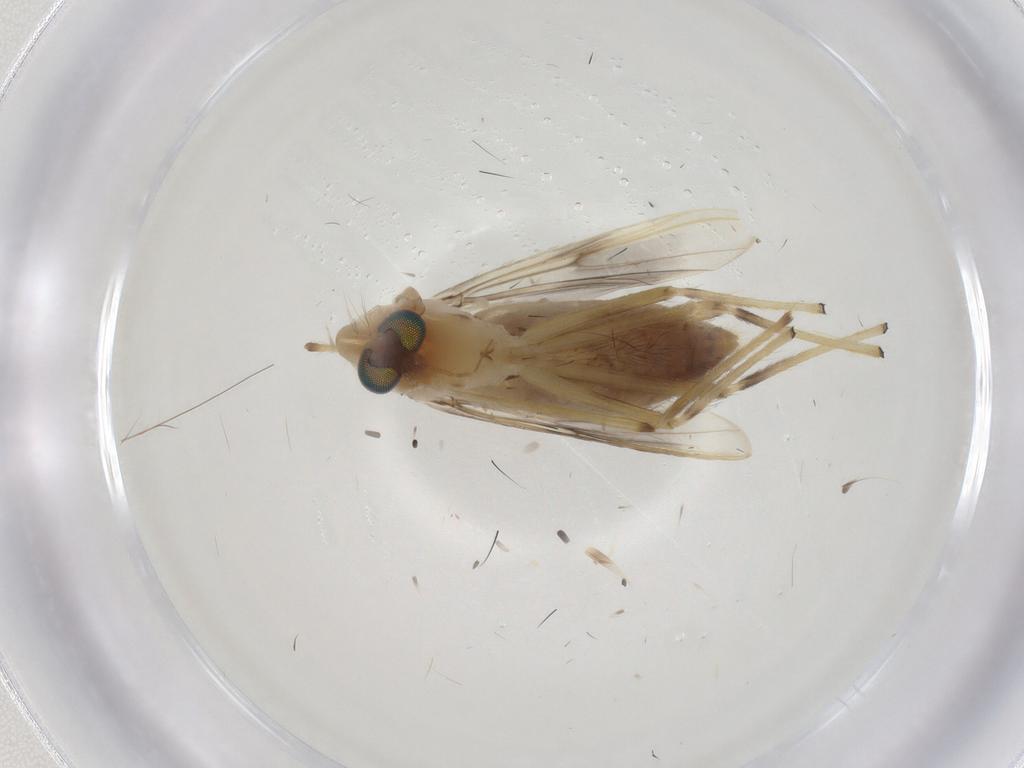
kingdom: Animalia
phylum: Arthropoda
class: Insecta
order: Diptera
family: Chironomidae
